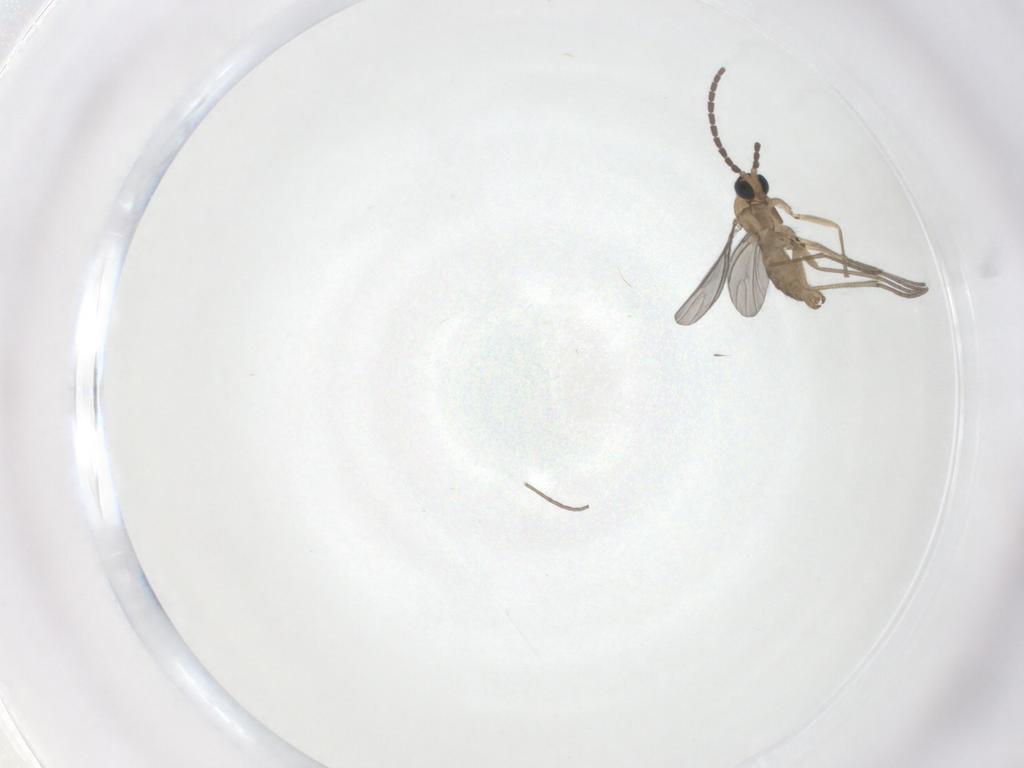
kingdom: Animalia
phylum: Arthropoda
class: Insecta
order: Diptera
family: Sciaridae
